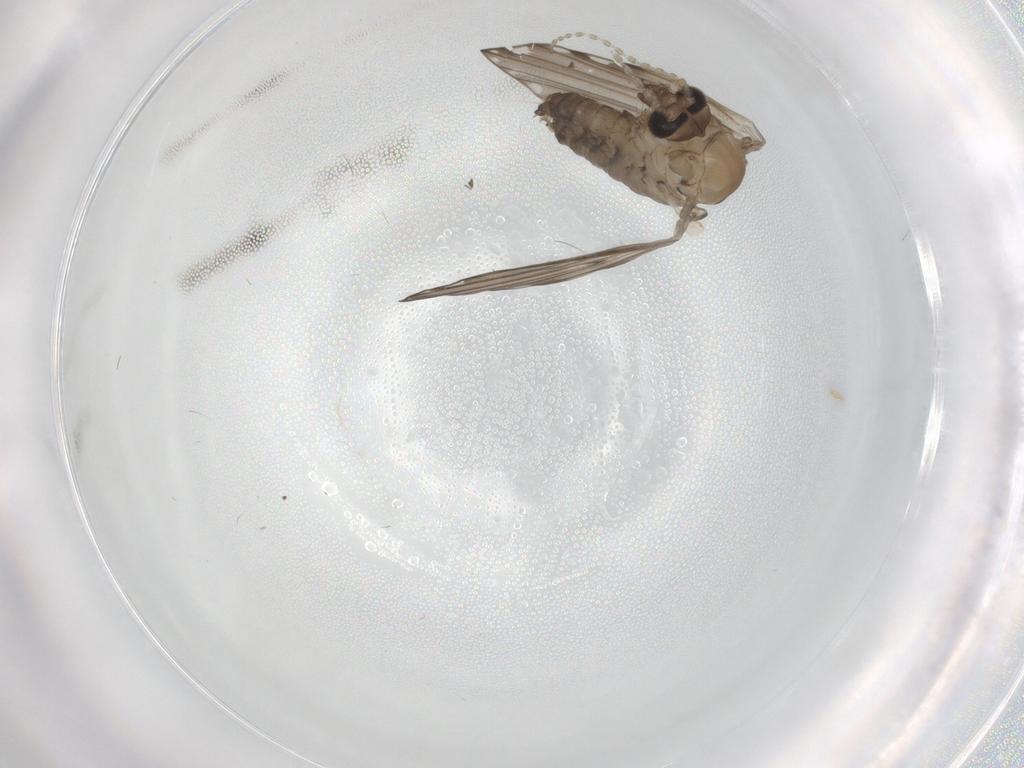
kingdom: Animalia
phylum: Arthropoda
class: Insecta
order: Diptera
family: Psychodidae
